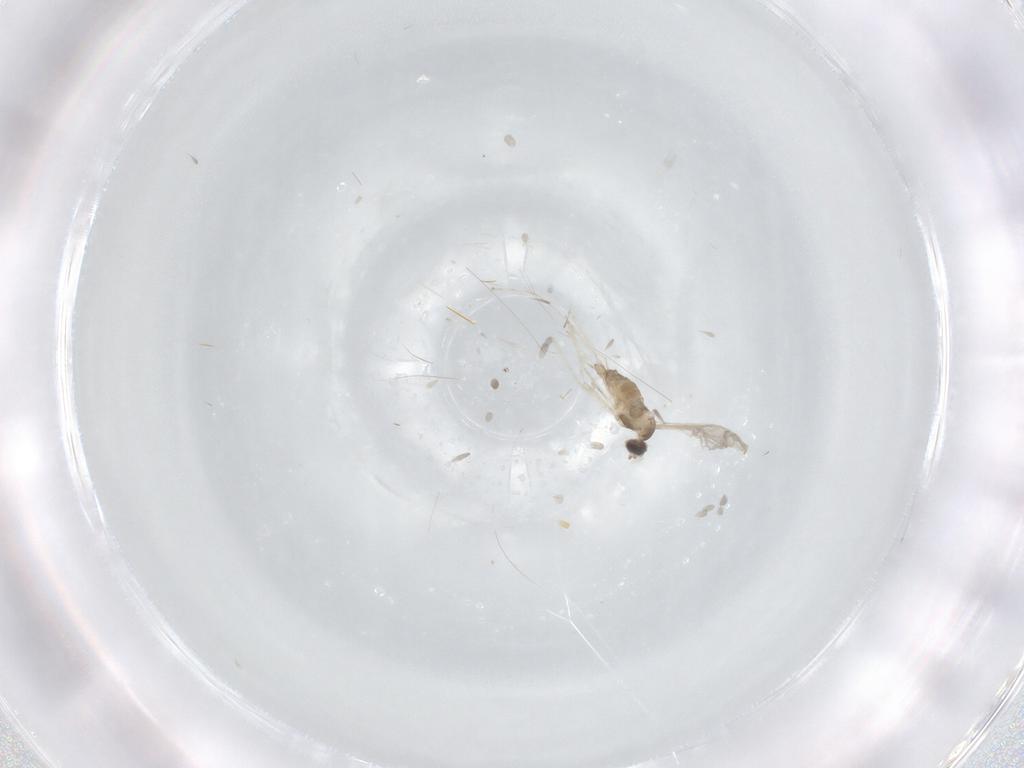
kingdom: Animalia
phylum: Arthropoda
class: Insecta
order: Diptera
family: Cecidomyiidae
